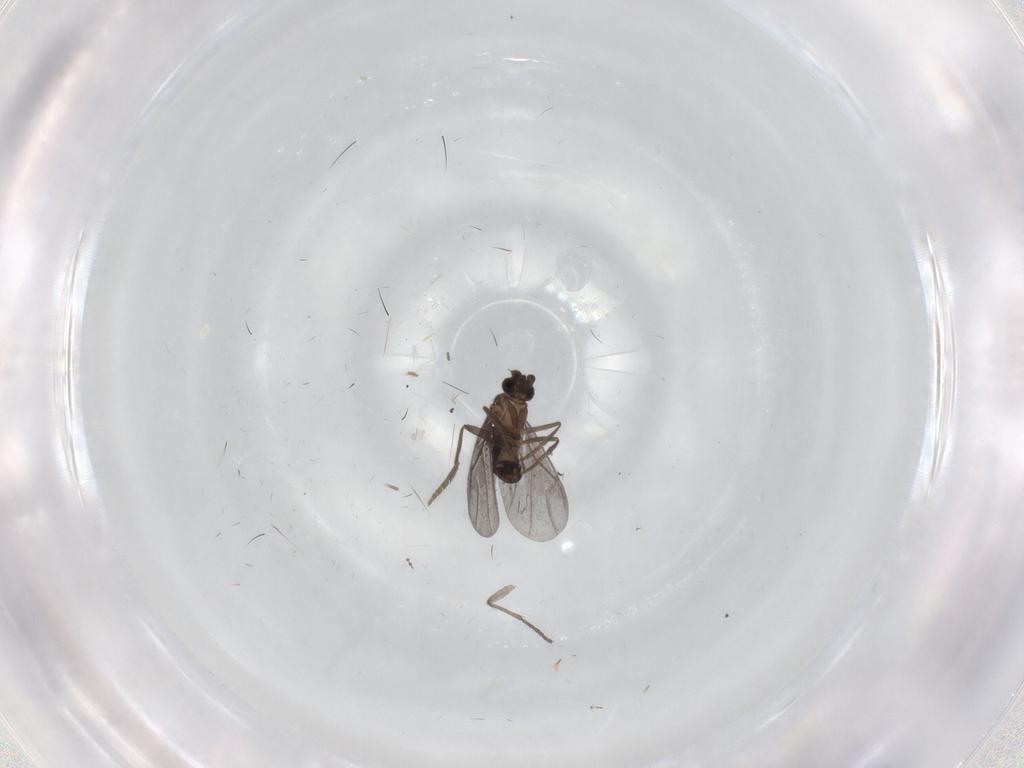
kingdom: Animalia
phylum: Arthropoda
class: Insecta
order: Diptera
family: Phoridae
